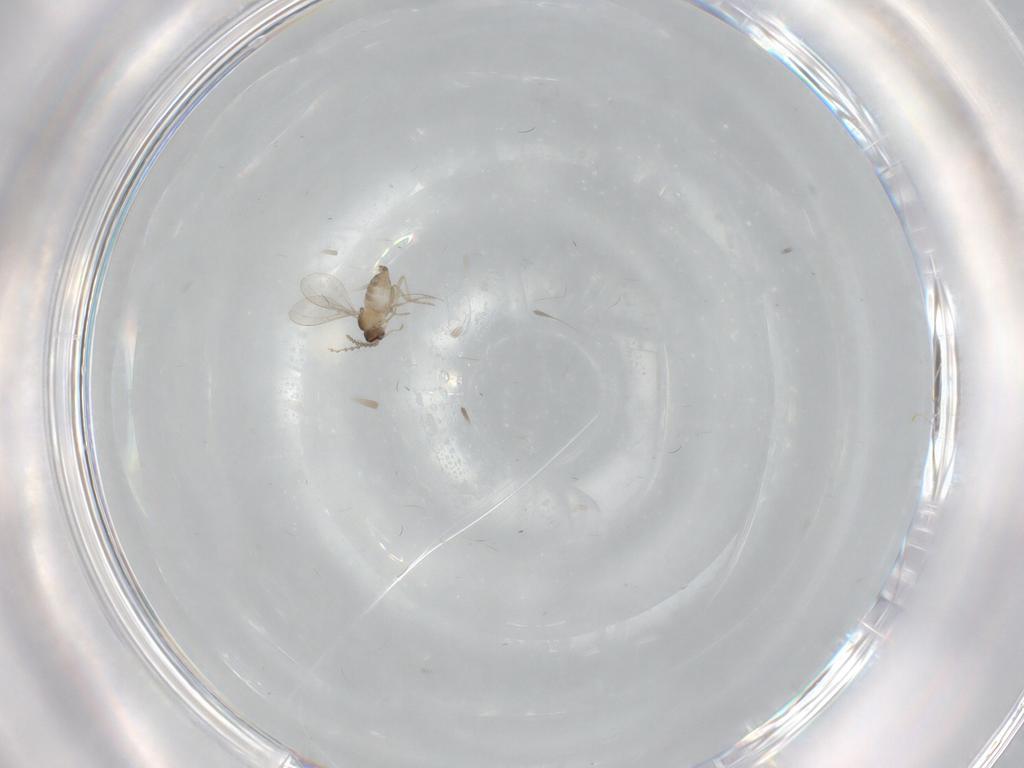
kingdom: Animalia
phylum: Arthropoda
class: Insecta
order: Diptera
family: Cecidomyiidae
